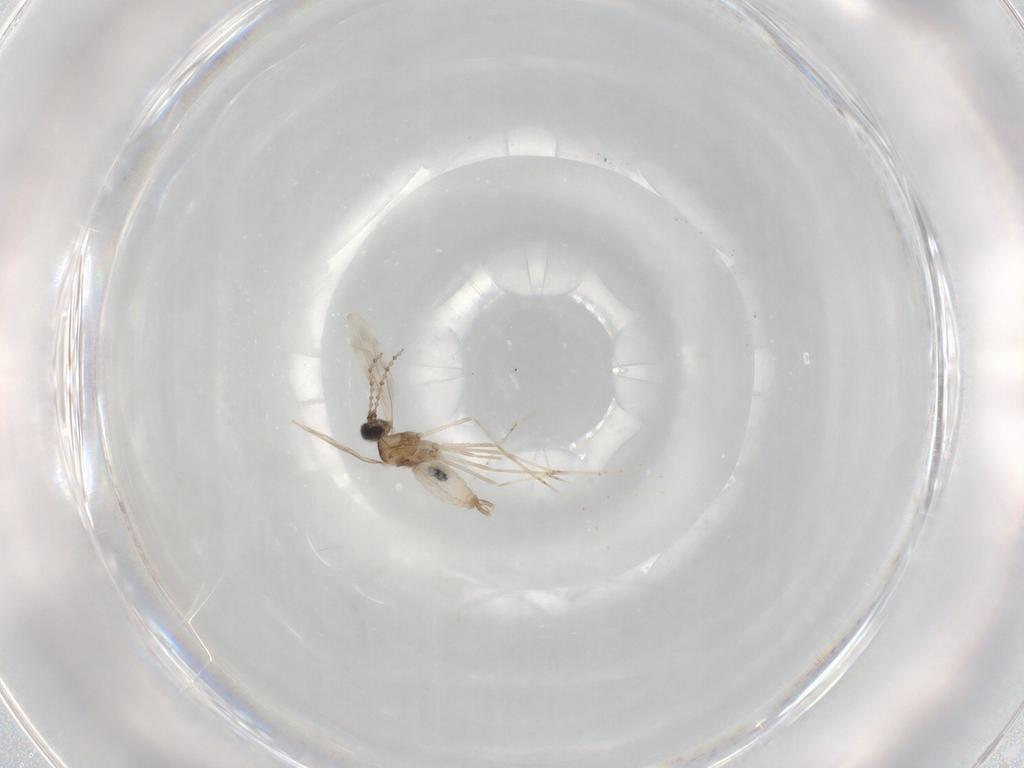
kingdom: Animalia
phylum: Arthropoda
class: Insecta
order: Diptera
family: Cecidomyiidae
